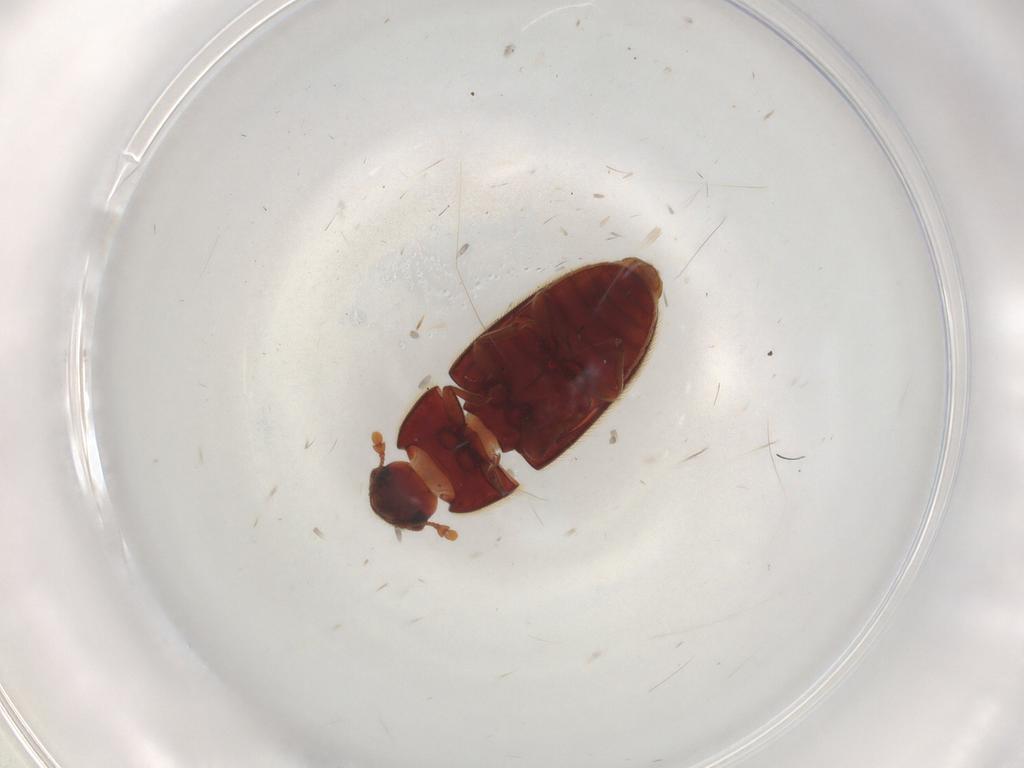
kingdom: Animalia
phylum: Arthropoda
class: Insecta
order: Coleoptera
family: Biphyllidae
